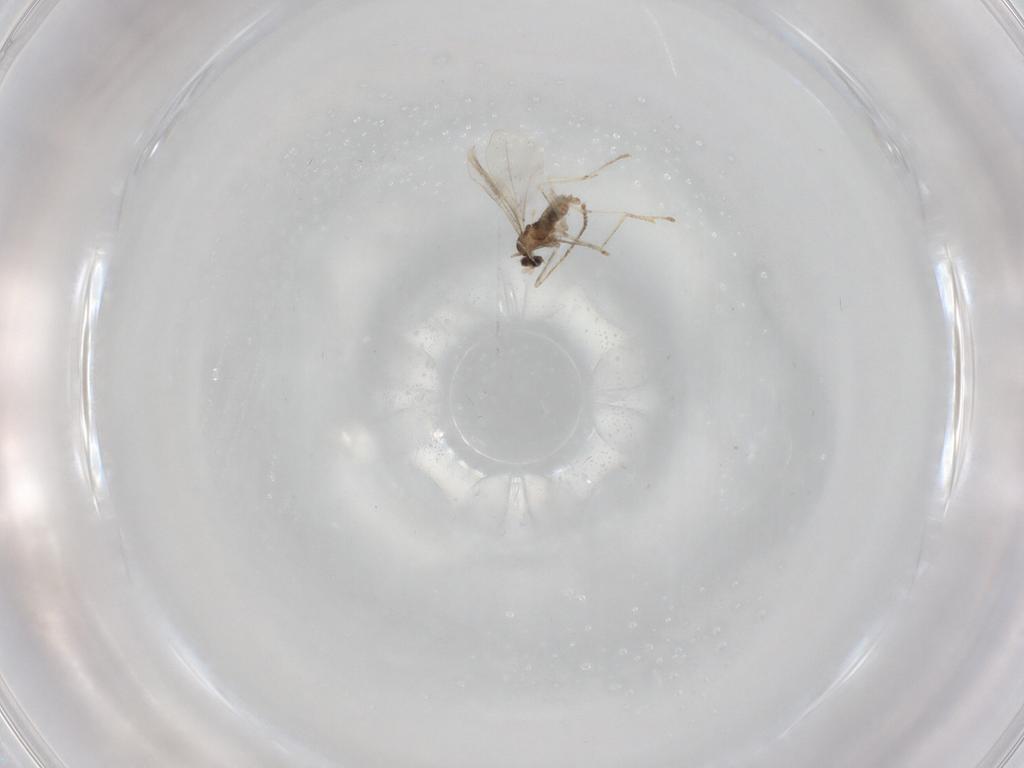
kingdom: Animalia
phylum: Arthropoda
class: Insecta
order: Diptera
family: Cecidomyiidae
